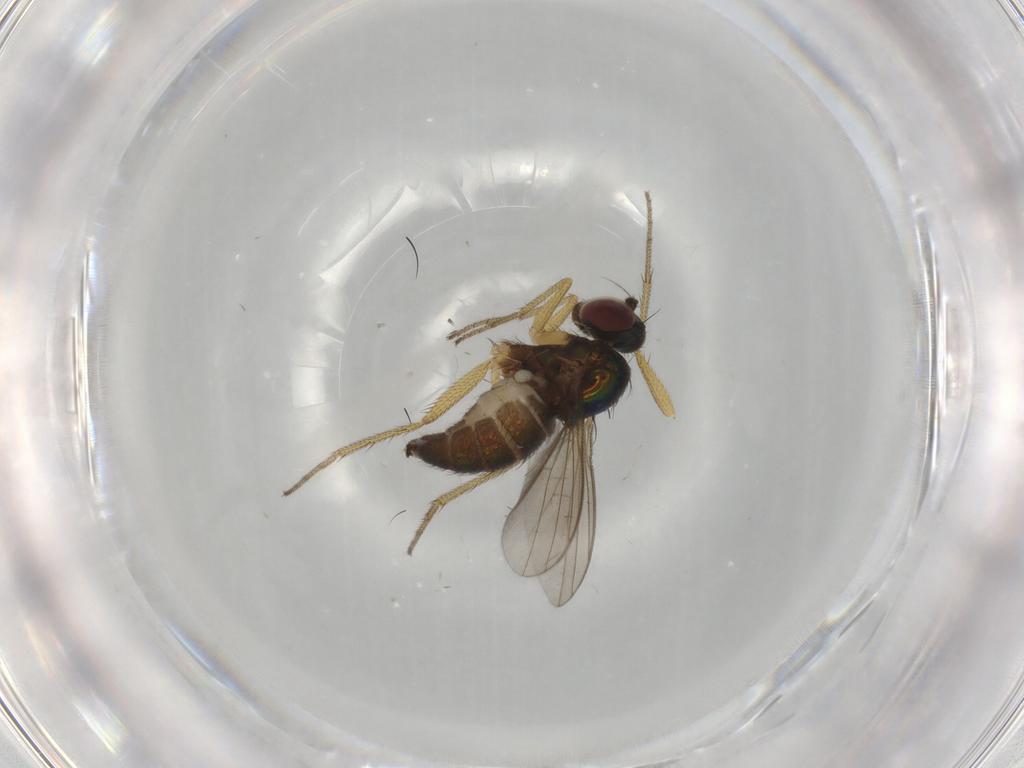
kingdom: Animalia
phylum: Arthropoda
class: Insecta
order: Diptera
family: Dolichopodidae
